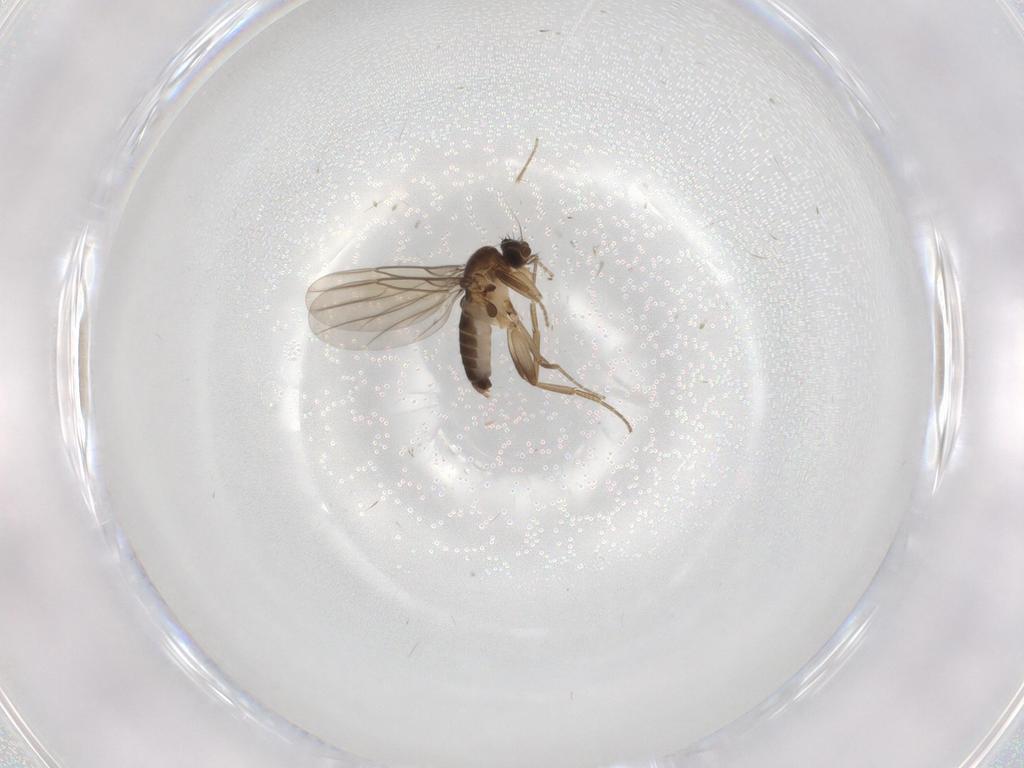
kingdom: Animalia
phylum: Arthropoda
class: Insecta
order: Diptera
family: Phoridae
